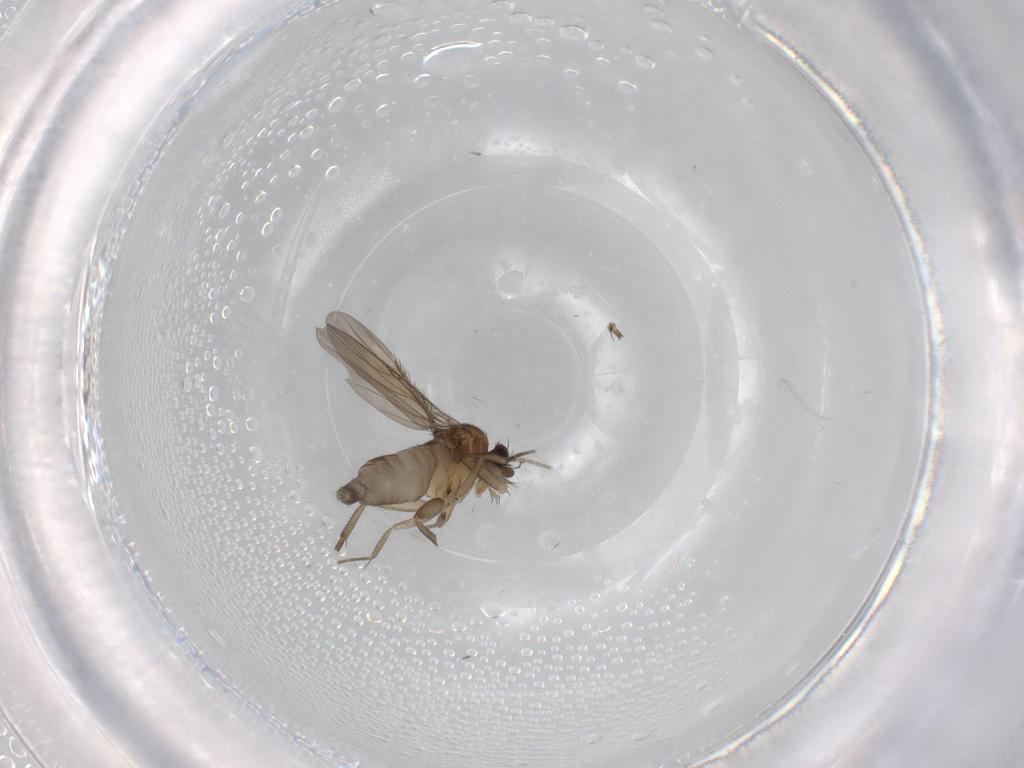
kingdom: Animalia
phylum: Arthropoda
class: Insecta
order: Diptera
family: Phoridae
